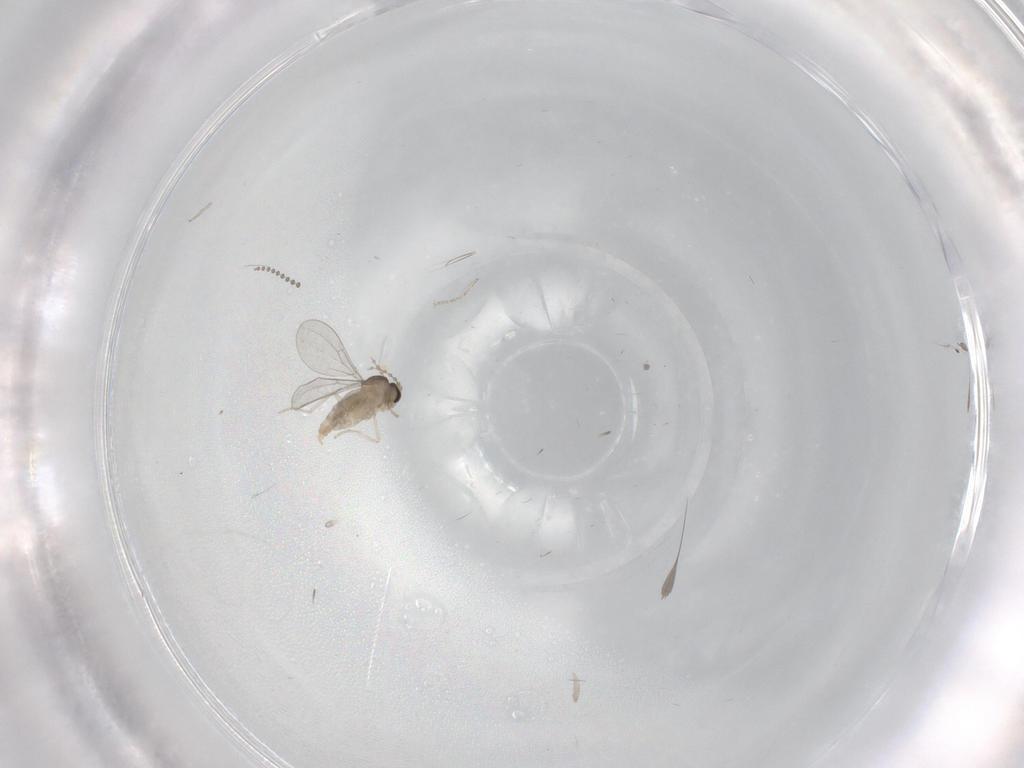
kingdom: Animalia
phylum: Arthropoda
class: Insecta
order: Diptera
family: Cecidomyiidae
